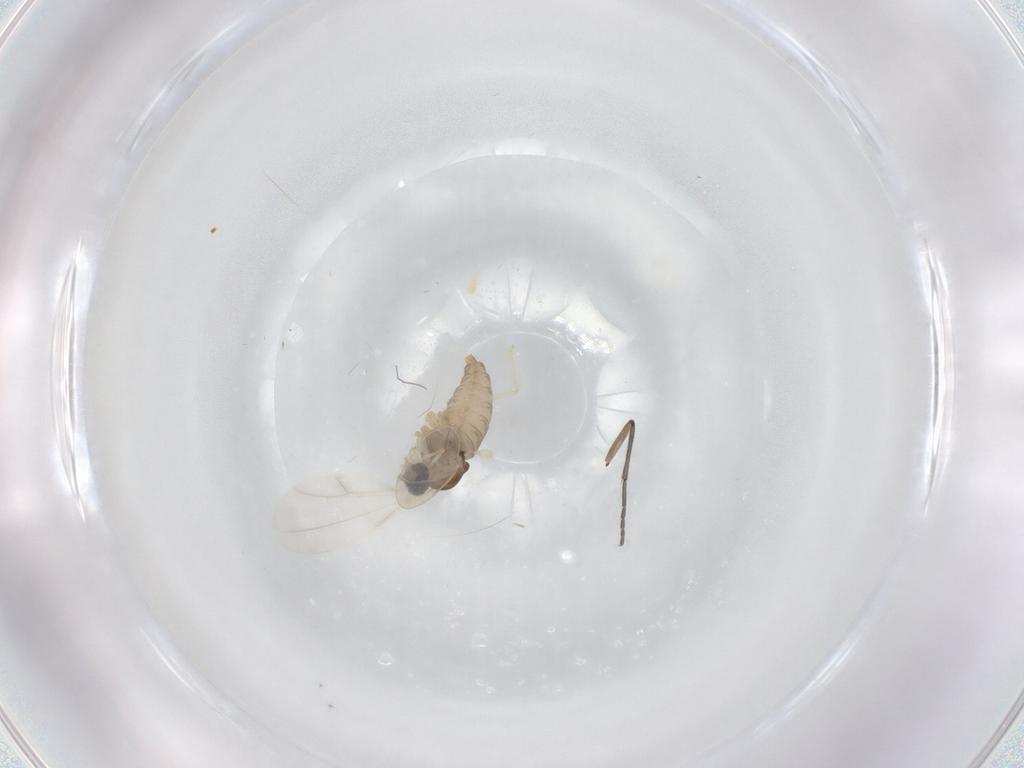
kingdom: Animalia
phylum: Arthropoda
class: Insecta
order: Diptera
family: Cecidomyiidae
